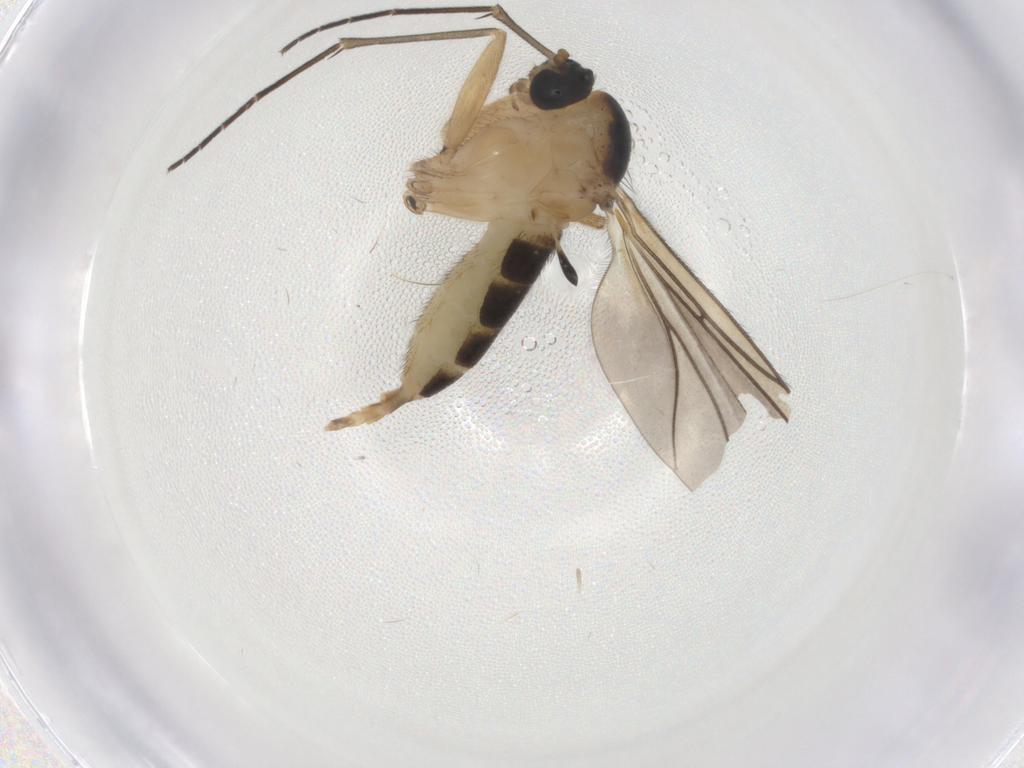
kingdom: Animalia
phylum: Arthropoda
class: Insecta
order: Diptera
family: Sciaridae
